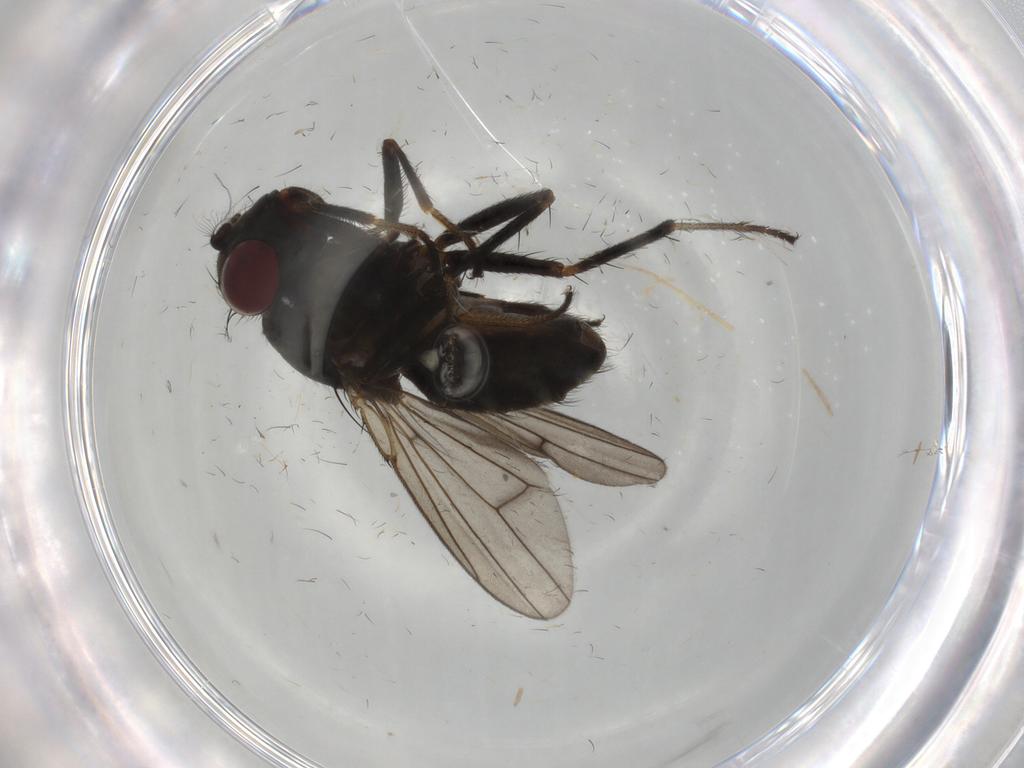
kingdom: Animalia
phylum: Arthropoda
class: Insecta
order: Diptera
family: Ephydridae
